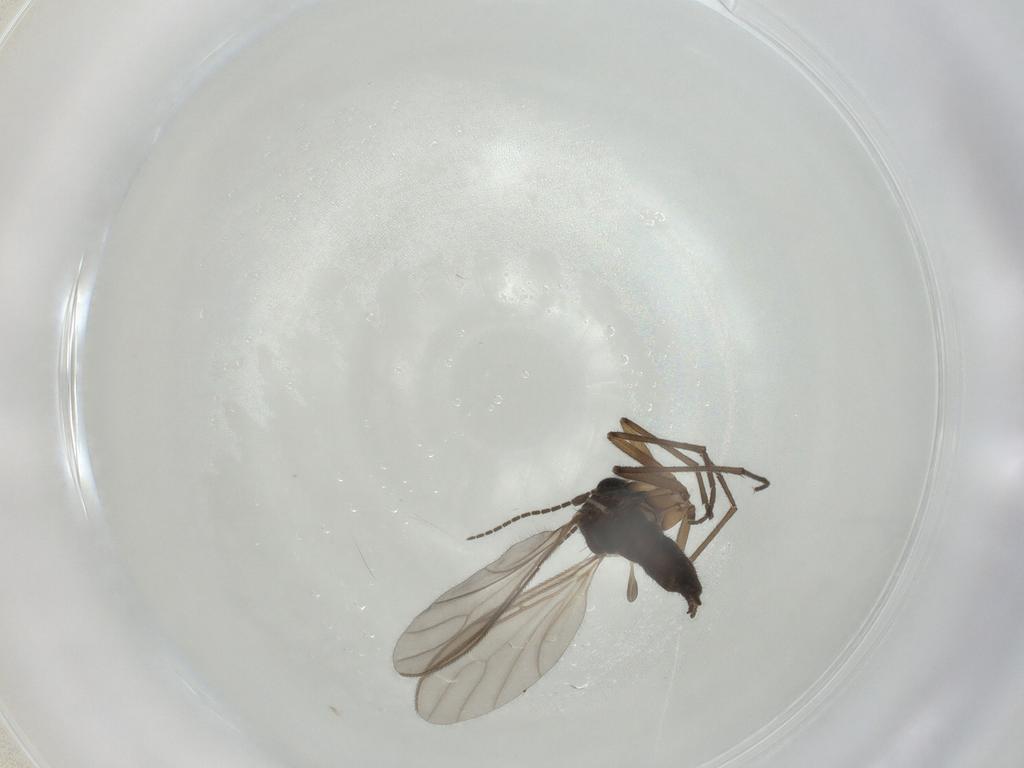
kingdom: Animalia
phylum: Arthropoda
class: Insecta
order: Diptera
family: Sciaridae
